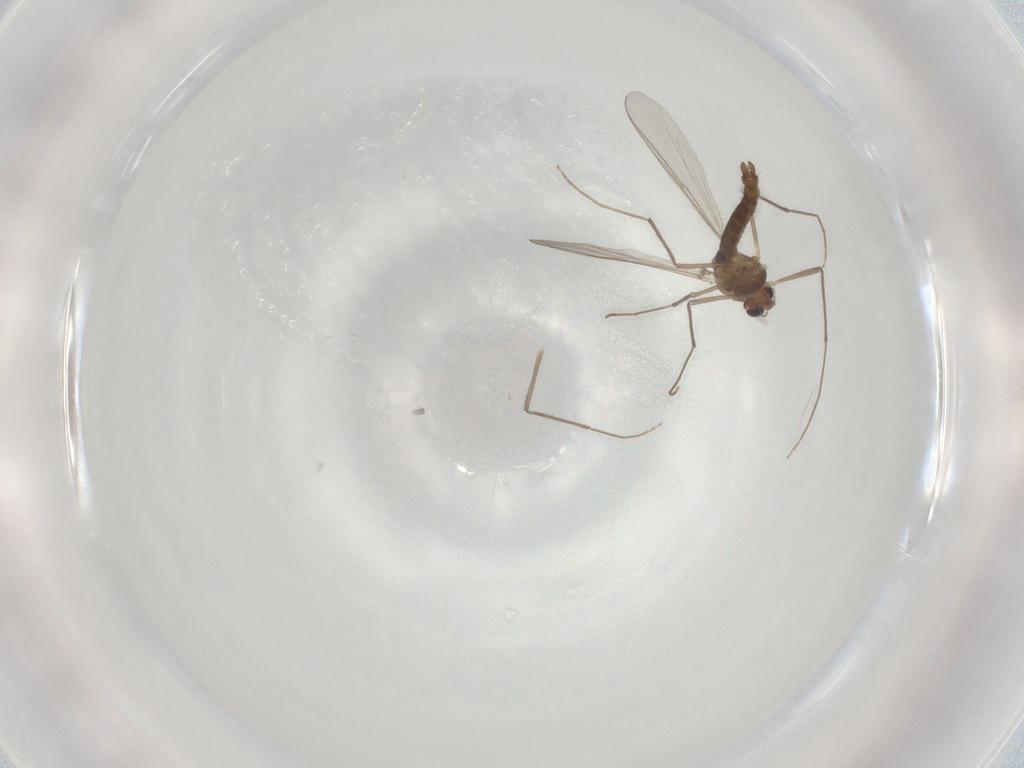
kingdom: Animalia
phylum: Arthropoda
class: Insecta
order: Diptera
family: Chironomidae
